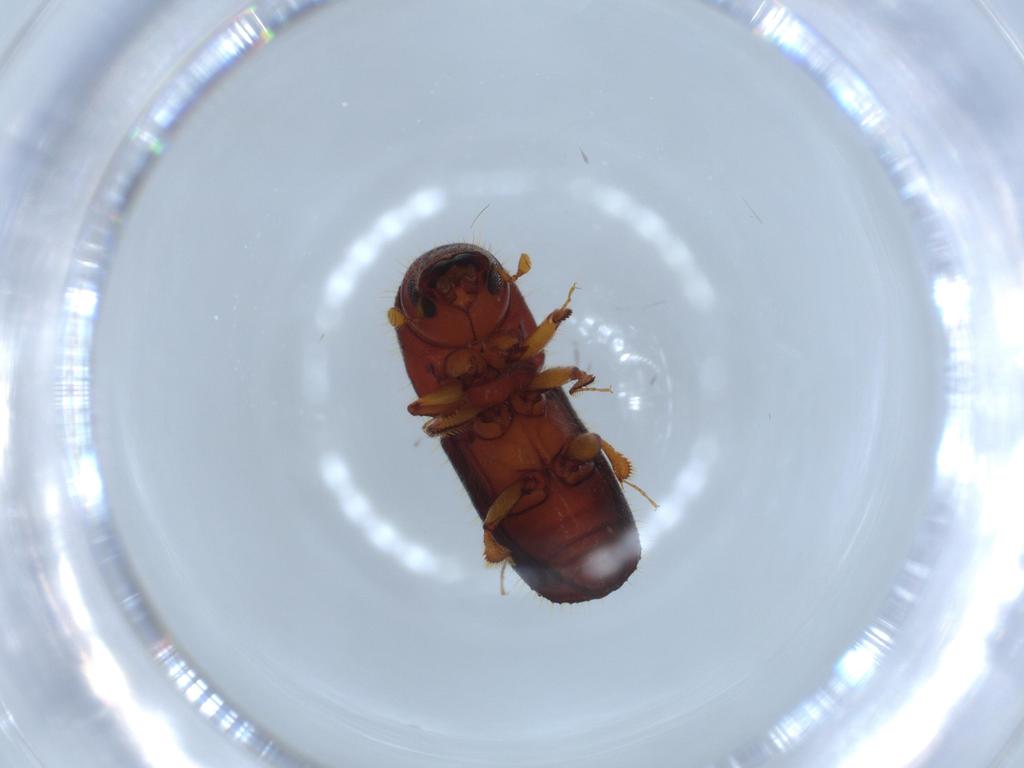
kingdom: Animalia
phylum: Arthropoda
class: Insecta
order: Coleoptera
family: Curculionidae
